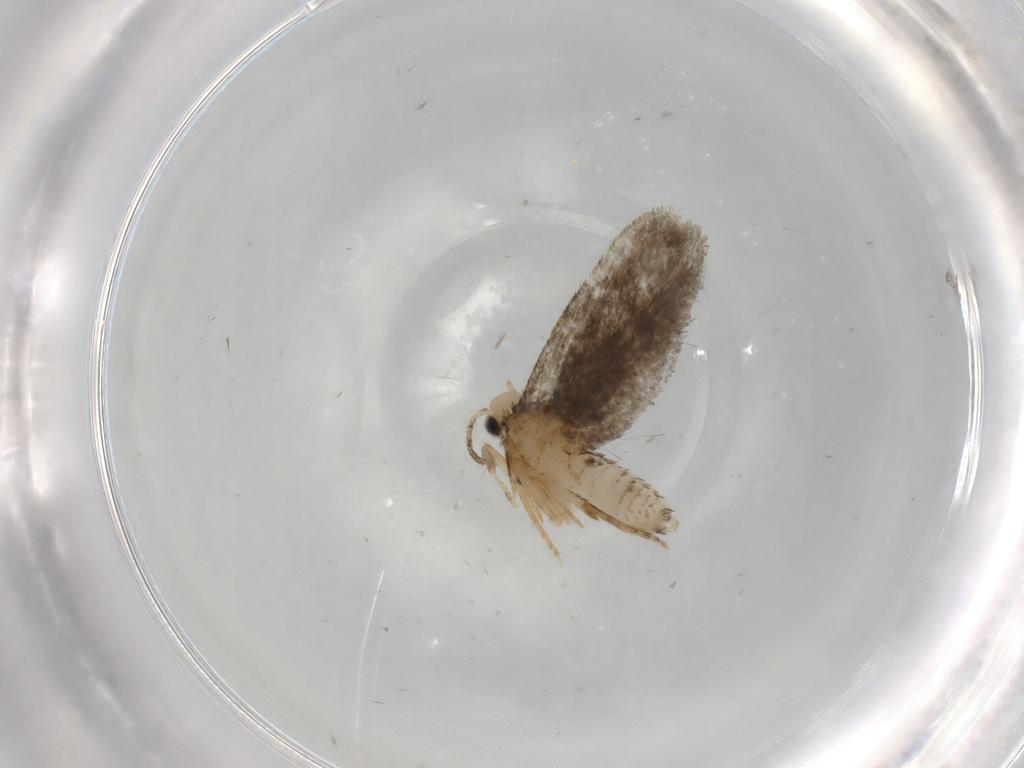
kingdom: Animalia
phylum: Arthropoda
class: Insecta
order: Lepidoptera
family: Psychidae
